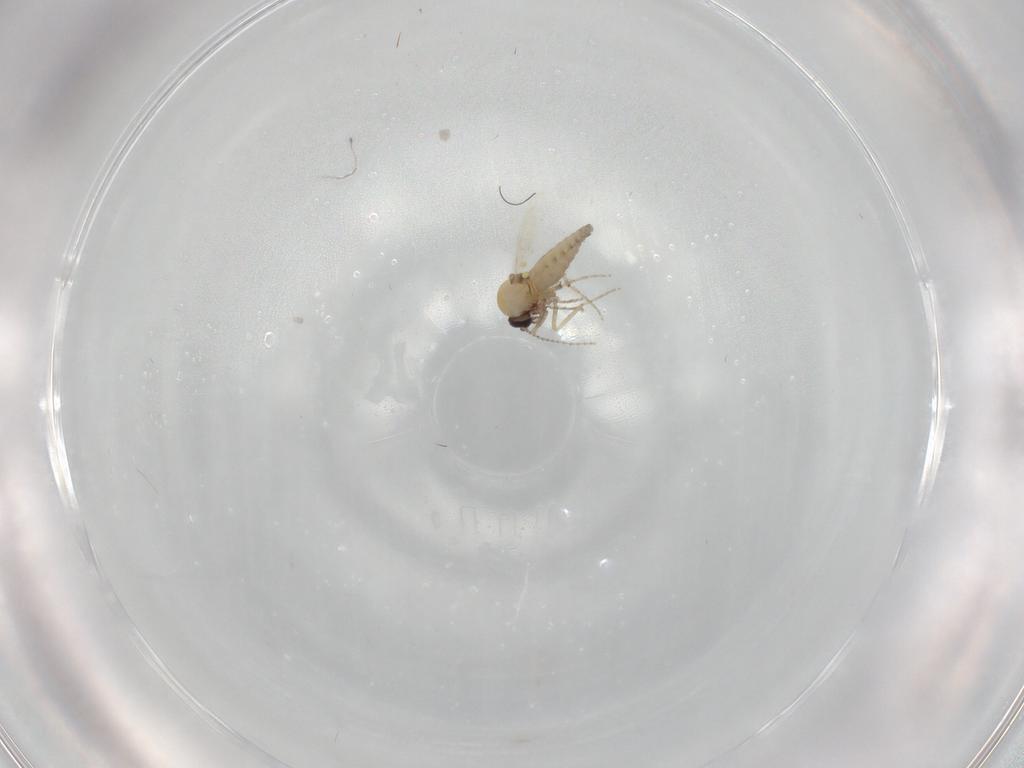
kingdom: Animalia
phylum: Arthropoda
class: Insecta
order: Diptera
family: Ceratopogonidae
